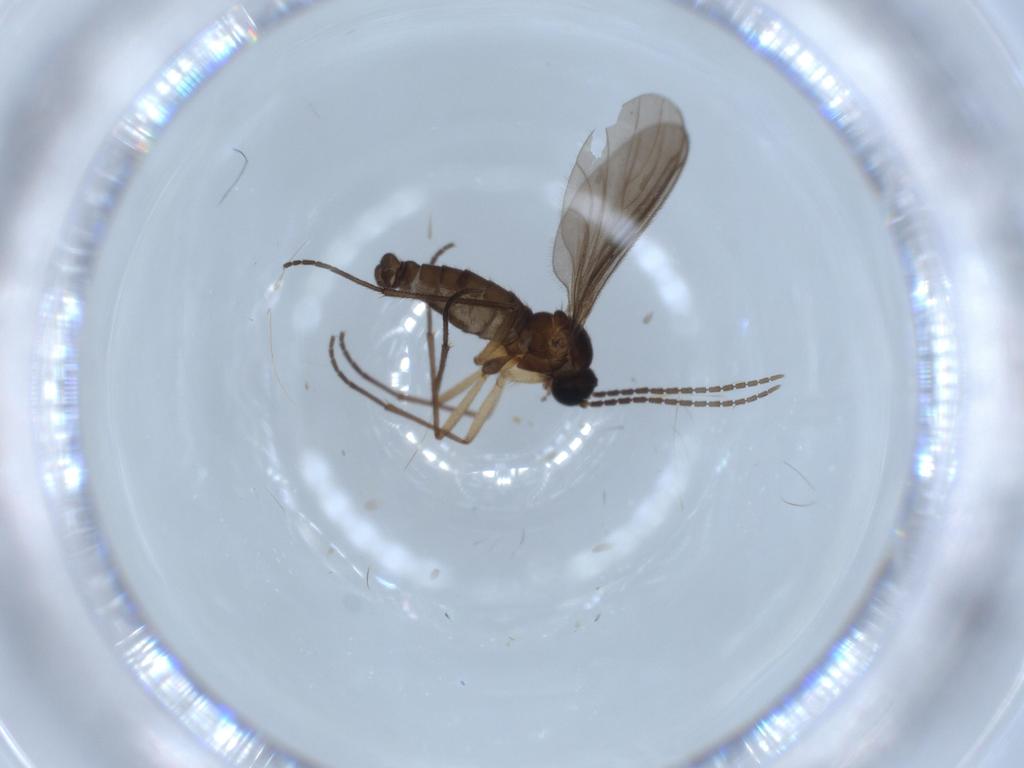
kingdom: Animalia
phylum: Arthropoda
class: Insecta
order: Diptera
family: Sciaridae
